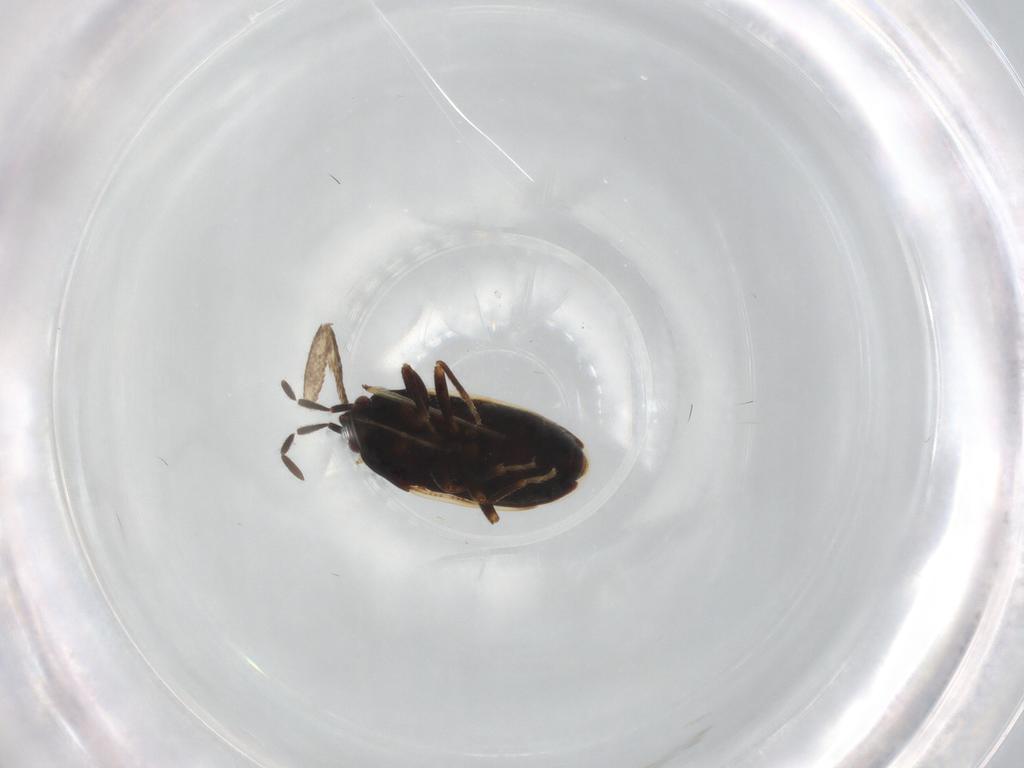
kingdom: Animalia
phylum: Arthropoda
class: Insecta
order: Hemiptera
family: Rhyparochromidae
